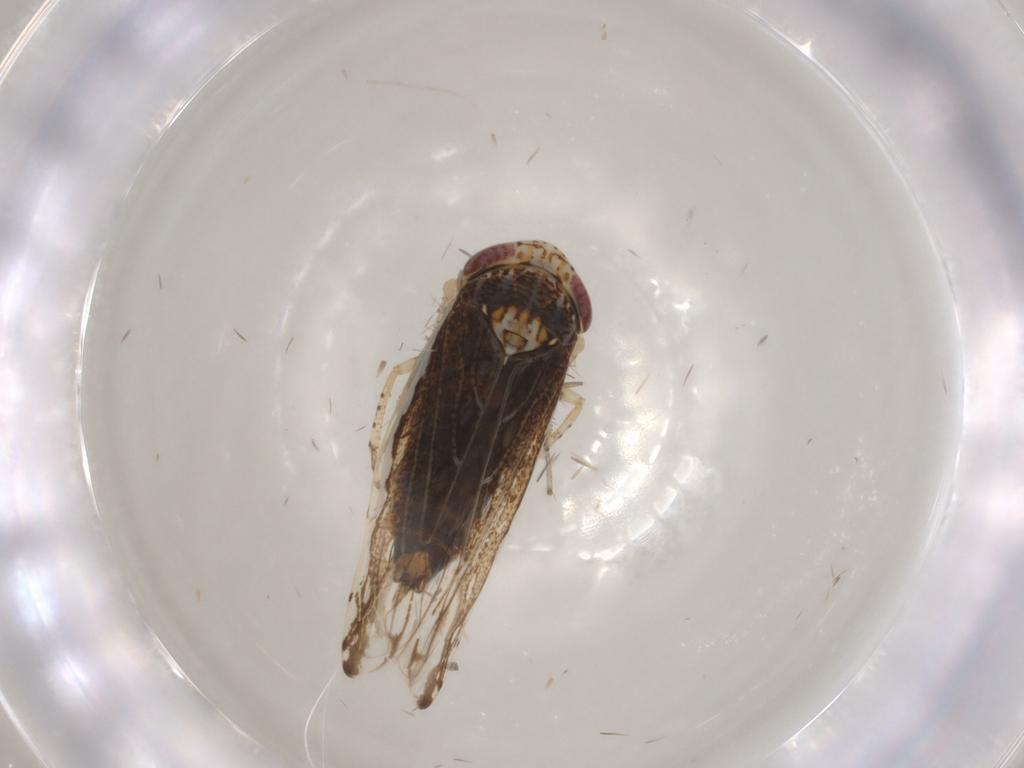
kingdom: Animalia
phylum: Arthropoda
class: Insecta
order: Hemiptera
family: Cicadellidae
